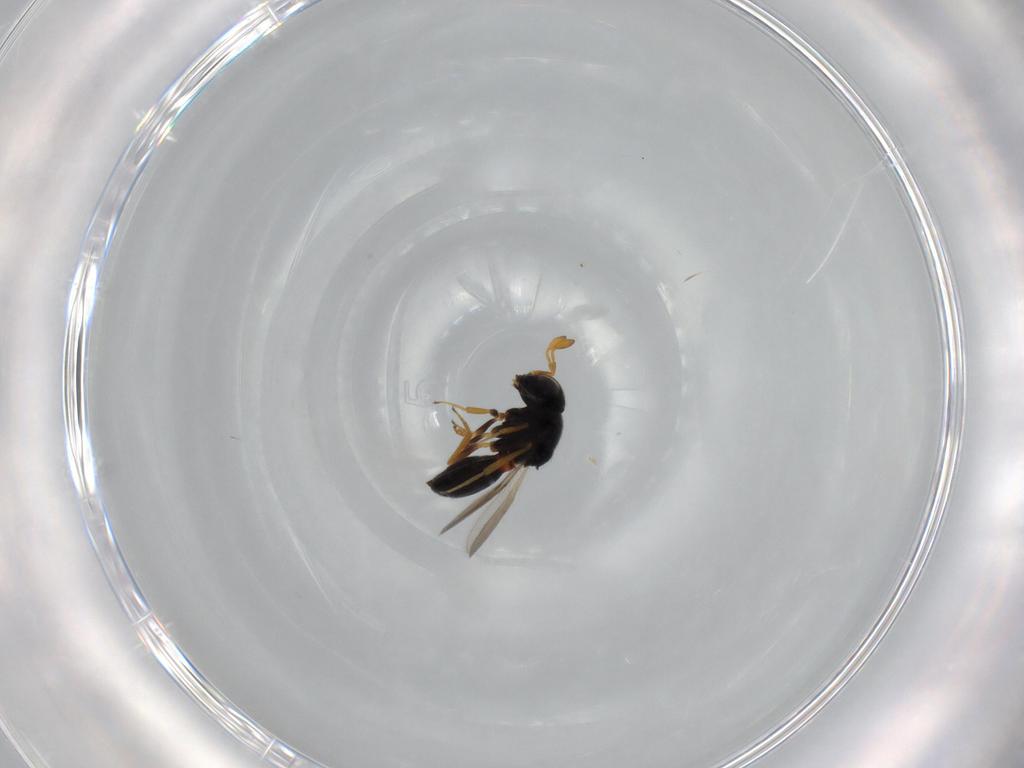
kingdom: Animalia
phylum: Arthropoda
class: Insecta
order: Hymenoptera
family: Scelionidae
